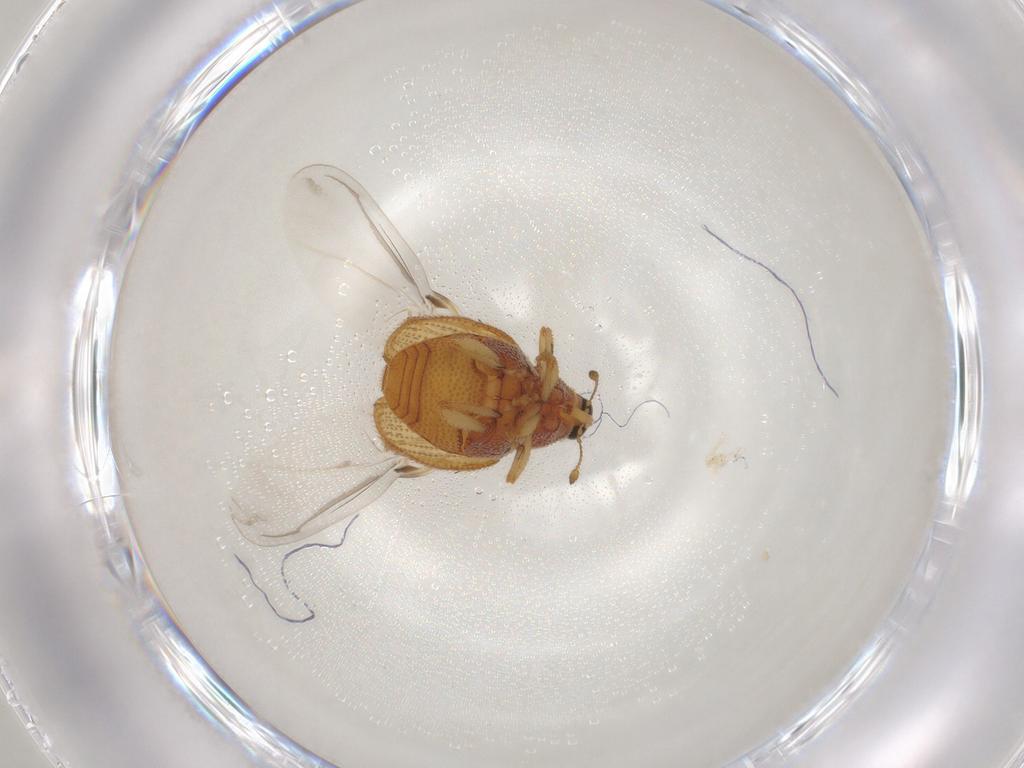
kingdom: Animalia
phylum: Arthropoda
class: Insecta
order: Coleoptera
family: Curculionidae
